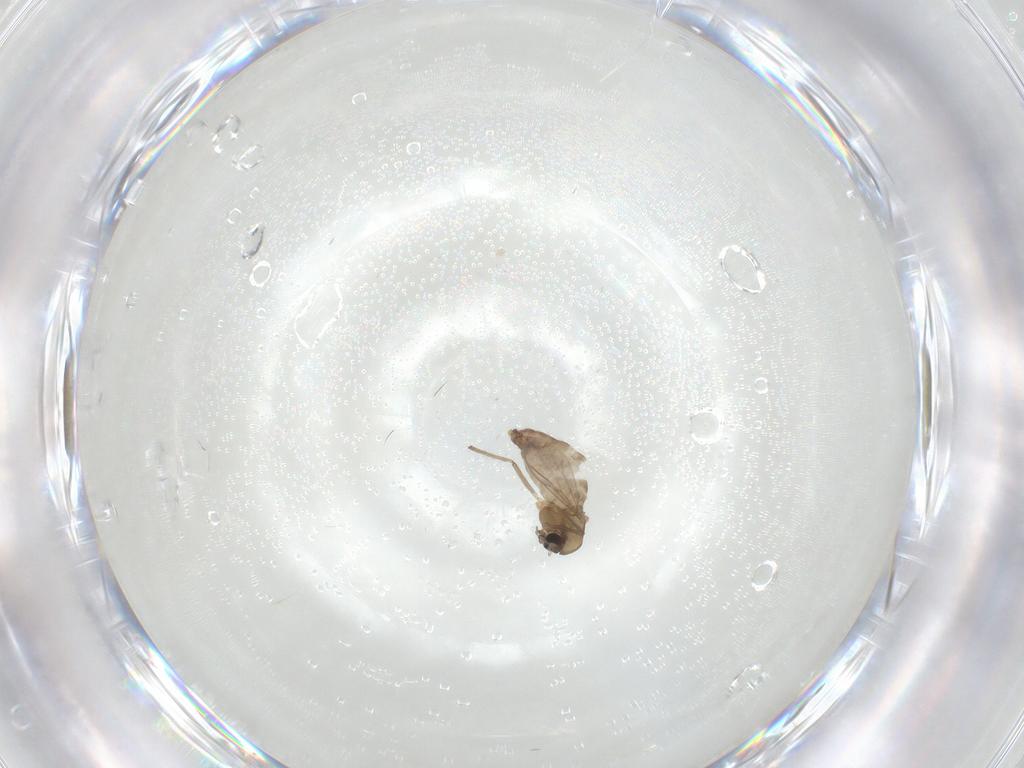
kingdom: Animalia
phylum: Arthropoda
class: Insecta
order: Diptera
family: Chironomidae
